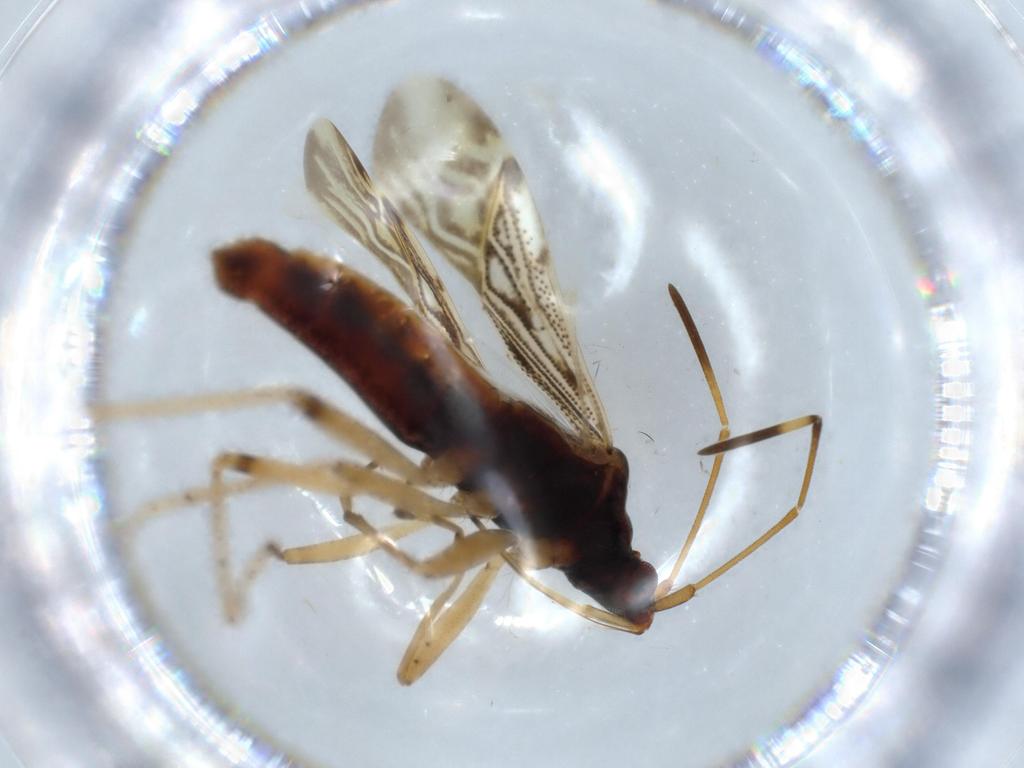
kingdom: Animalia
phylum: Arthropoda
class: Insecta
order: Hemiptera
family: Rhyparochromidae
